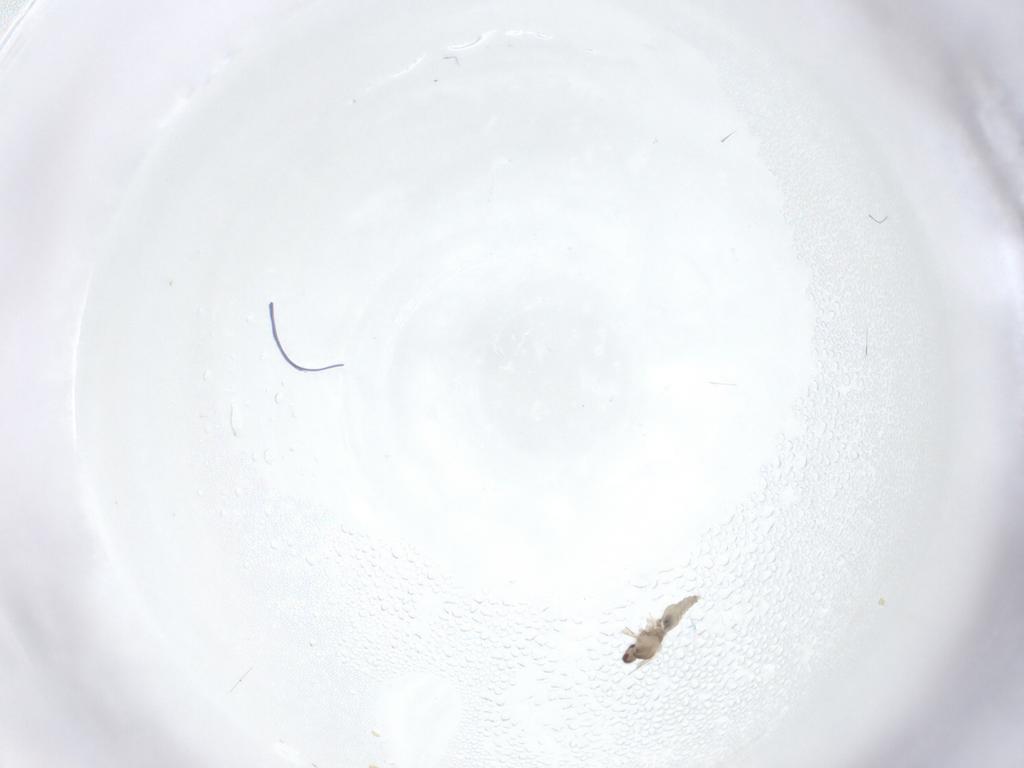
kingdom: Animalia
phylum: Arthropoda
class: Insecta
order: Diptera
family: Cecidomyiidae
